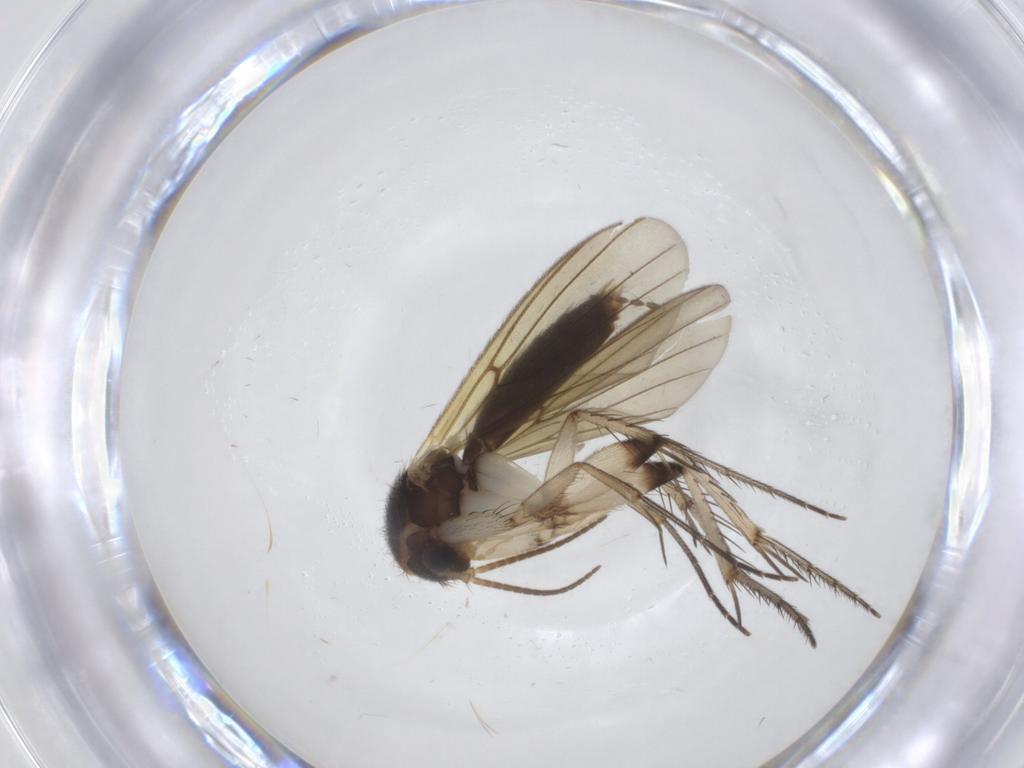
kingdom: Animalia
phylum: Arthropoda
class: Insecta
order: Diptera
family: Mycetophilidae
